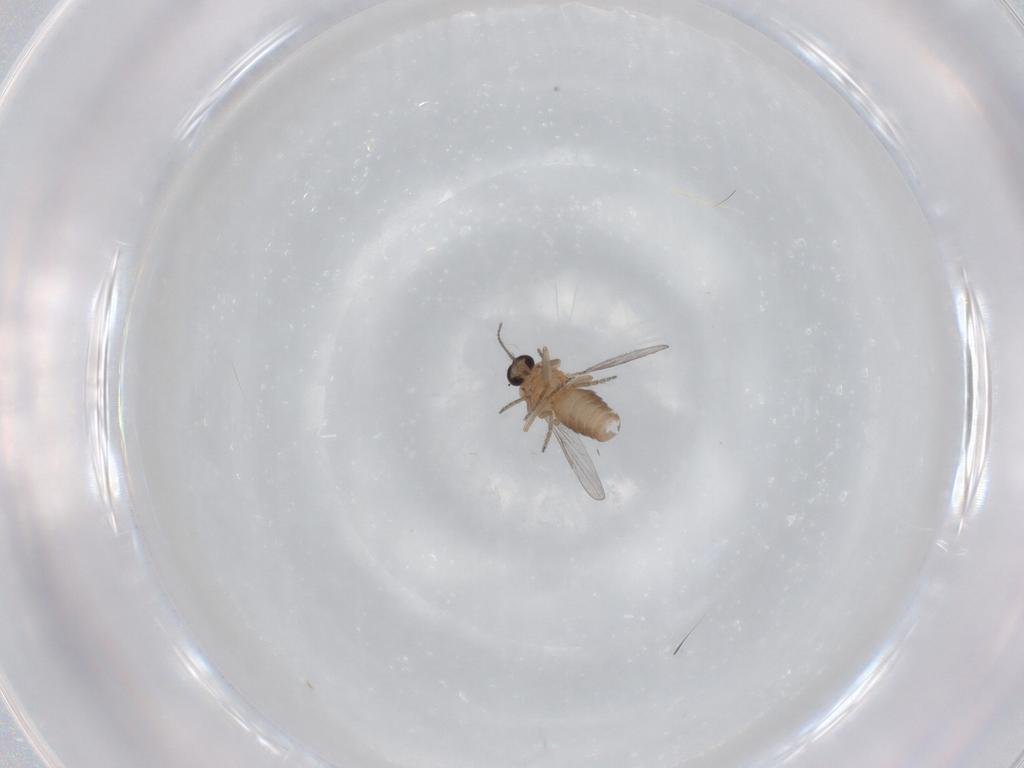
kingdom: Animalia
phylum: Arthropoda
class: Insecta
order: Diptera
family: Ceratopogonidae
